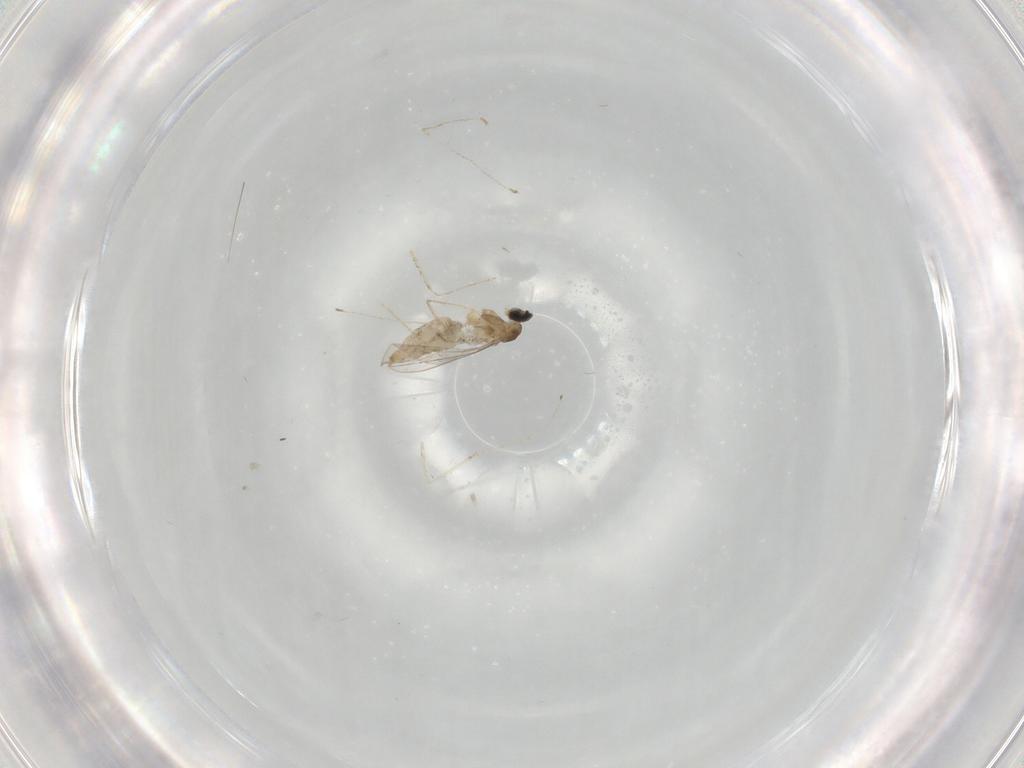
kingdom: Animalia
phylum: Arthropoda
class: Insecta
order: Diptera
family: Cecidomyiidae
